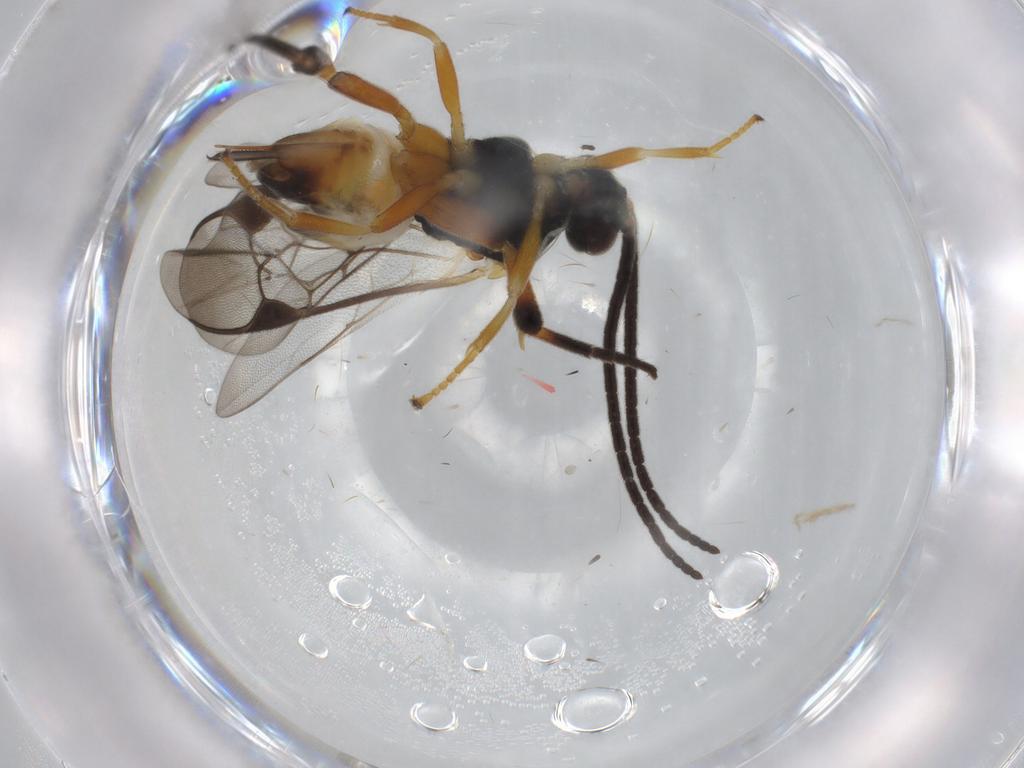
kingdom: Animalia
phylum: Arthropoda
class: Insecta
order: Hymenoptera
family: Braconidae
